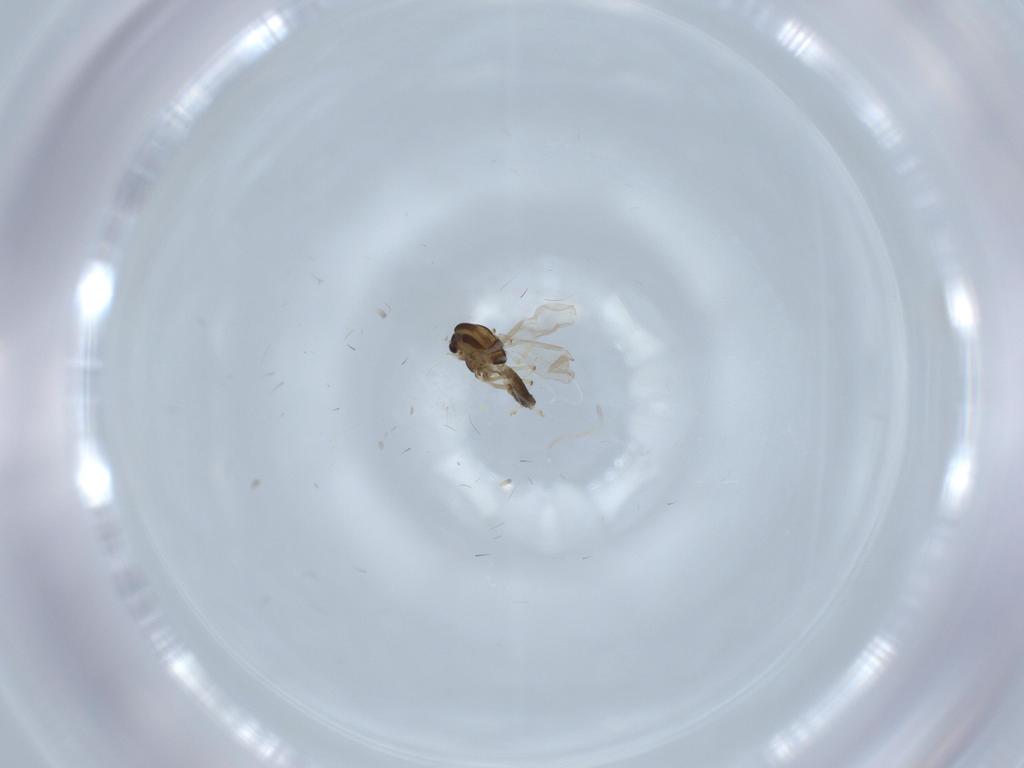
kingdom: Animalia
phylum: Arthropoda
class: Insecta
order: Diptera
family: Chironomidae
